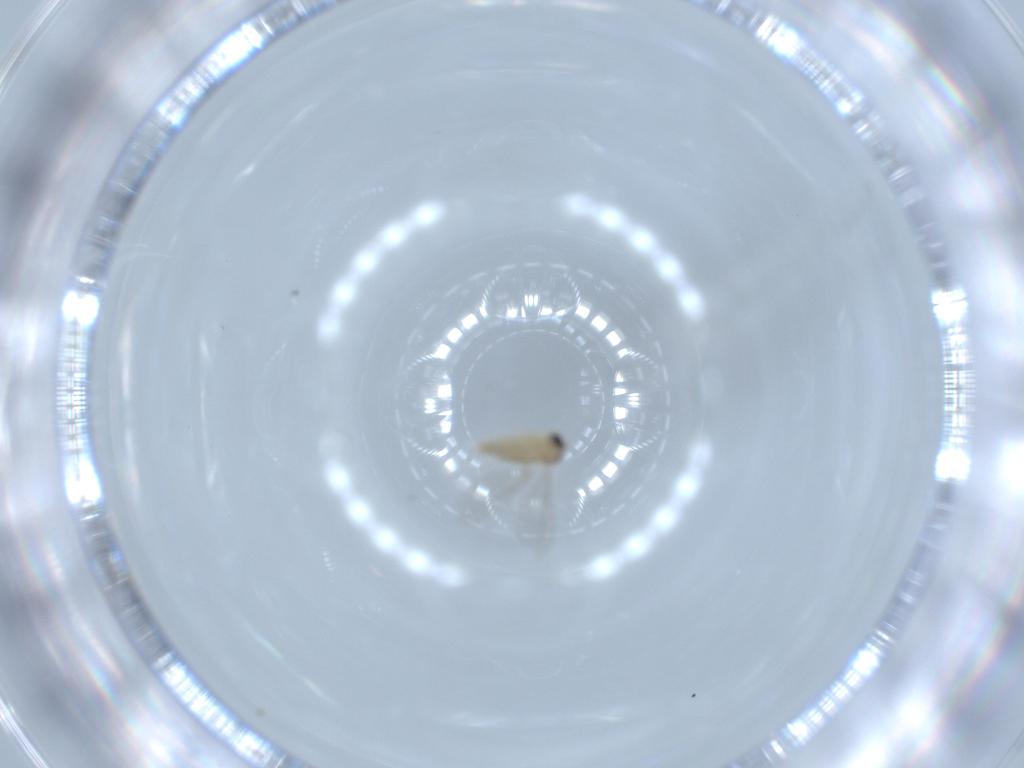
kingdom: Animalia
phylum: Arthropoda
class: Insecta
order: Diptera
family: Cecidomyiidae
